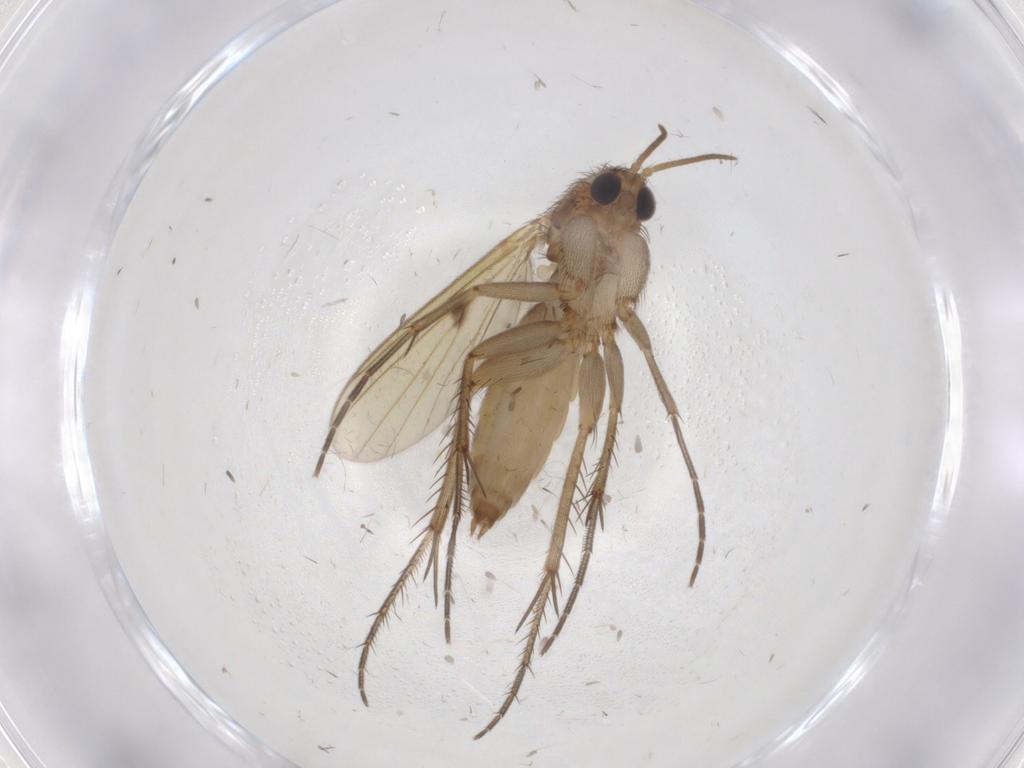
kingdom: Animalia
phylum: Arthropoda
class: Insecta
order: Diptera
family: Chironomidae
